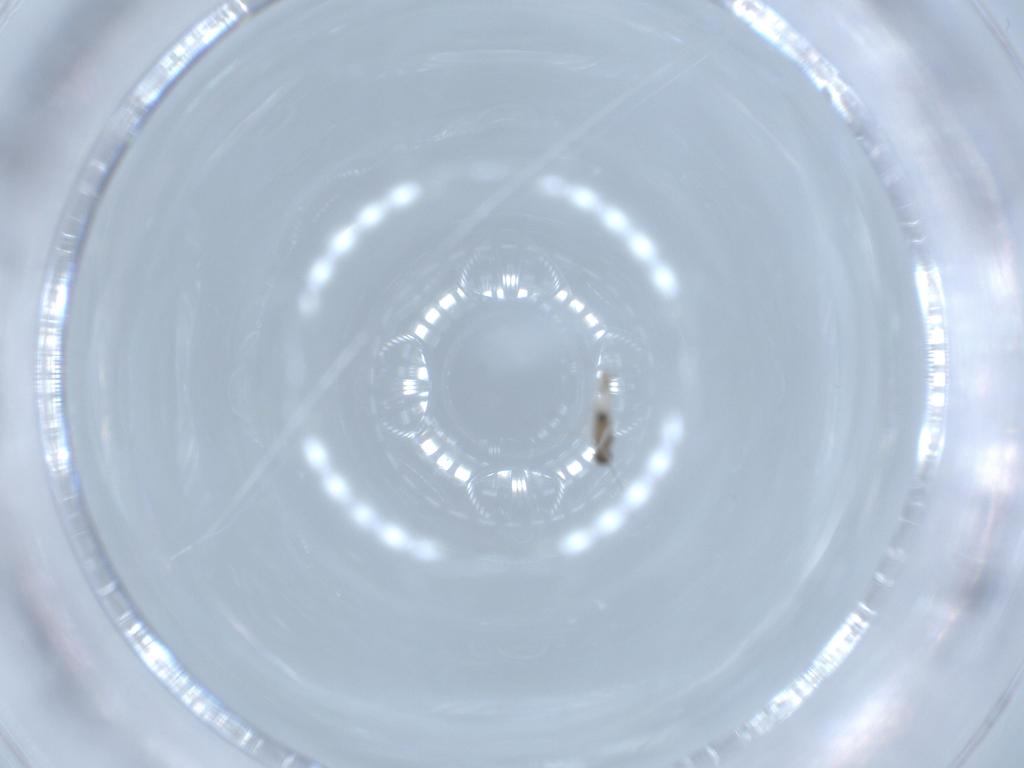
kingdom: Animalia
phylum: Arthropoda
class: Insecta
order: Diptera
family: Cecidomyiidae
